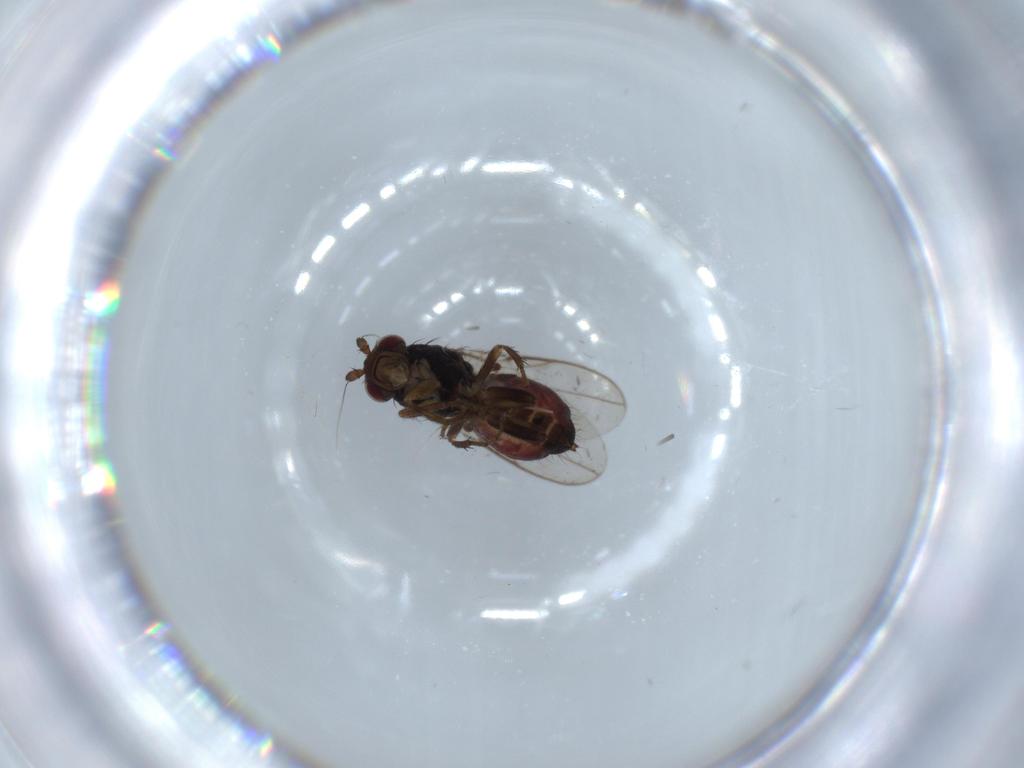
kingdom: Animalia
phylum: Arthropoda
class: Insecta
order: Diptera
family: Sphaeroceridae
